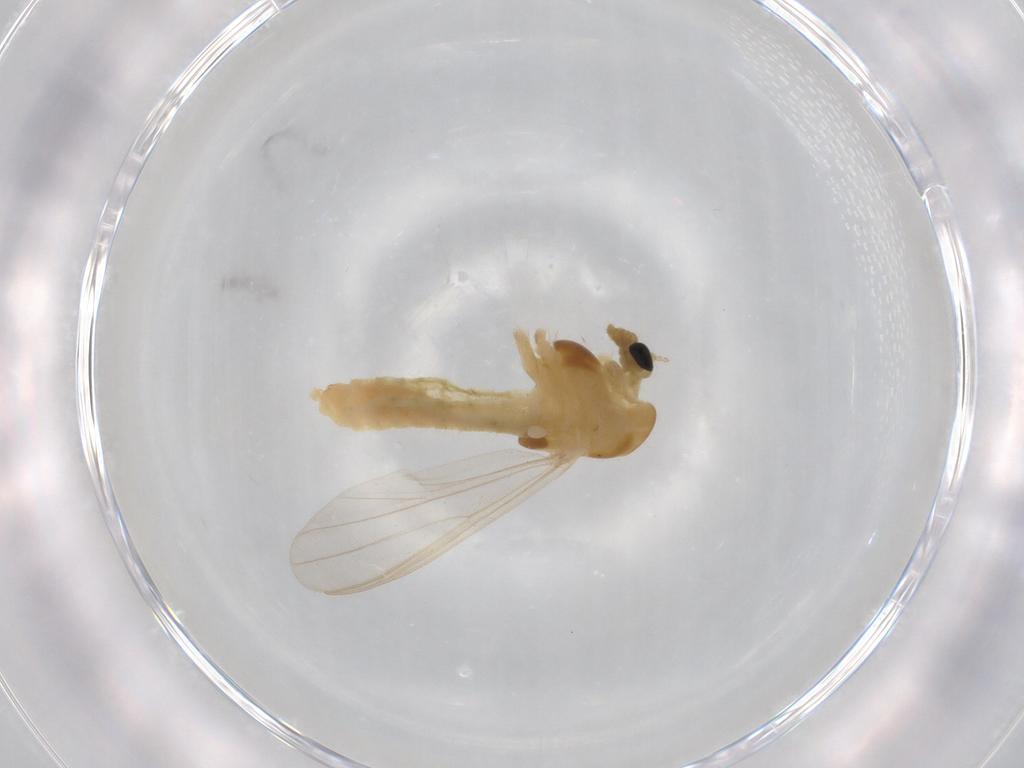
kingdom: Animalia
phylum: Arthropoda
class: Insecta
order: Diptera
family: Chironomidae
